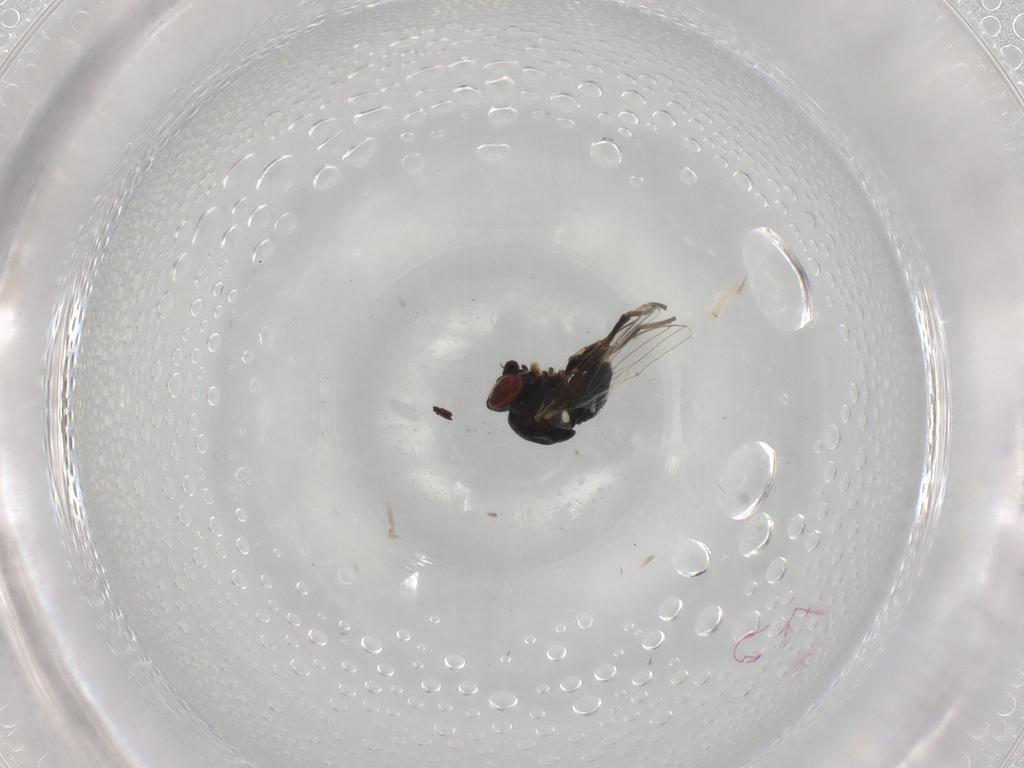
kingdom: Animalia
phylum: Arthropoda
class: Insecta
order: Diptera
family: Chamaemyiidae
